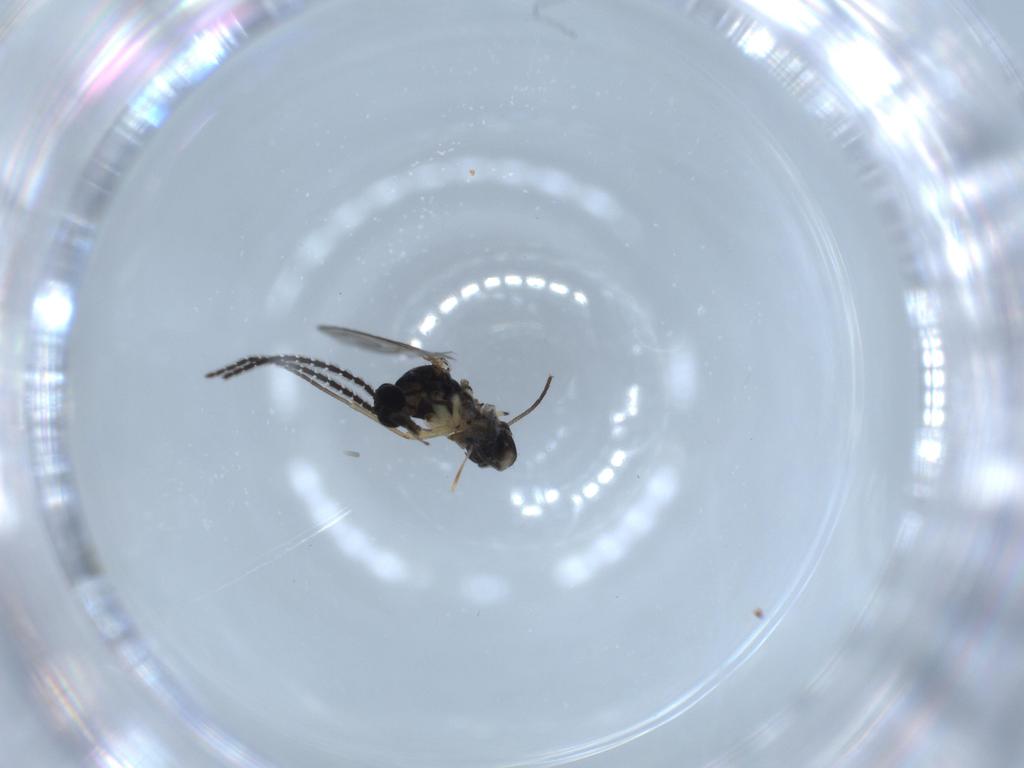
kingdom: Animalia
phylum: Arthropoda
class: Insecta
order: Diptera
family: Sciaridae
